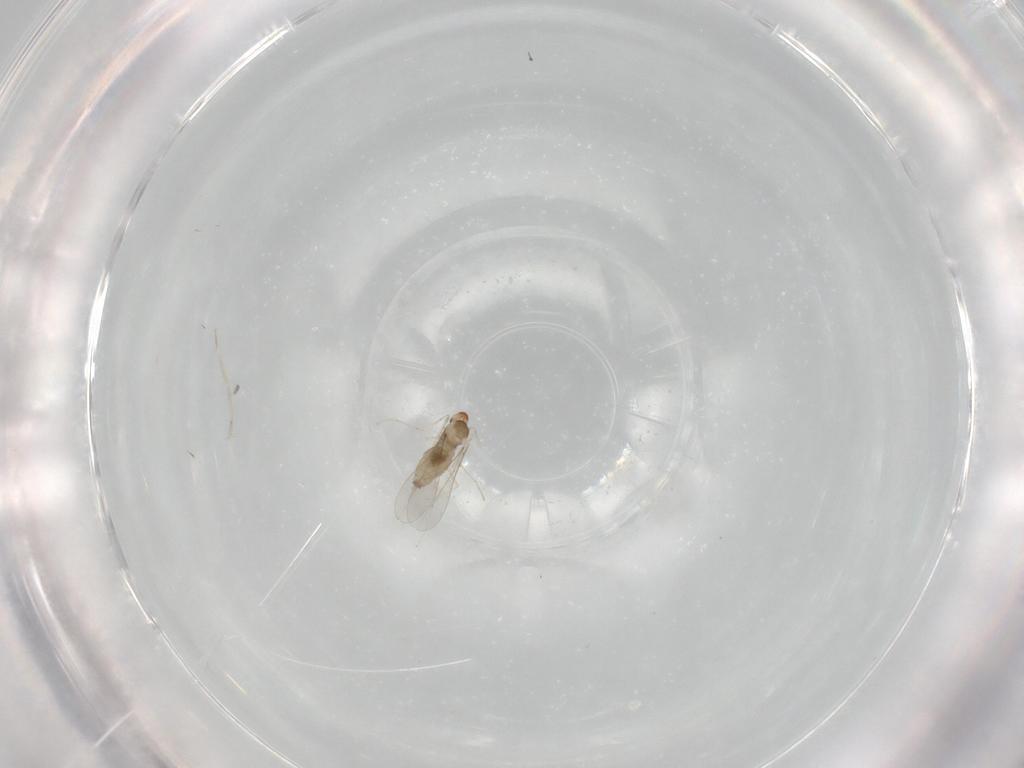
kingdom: Animalia
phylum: Arthropoda
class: Insecta
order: Diptera
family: Cecidomyiidae
